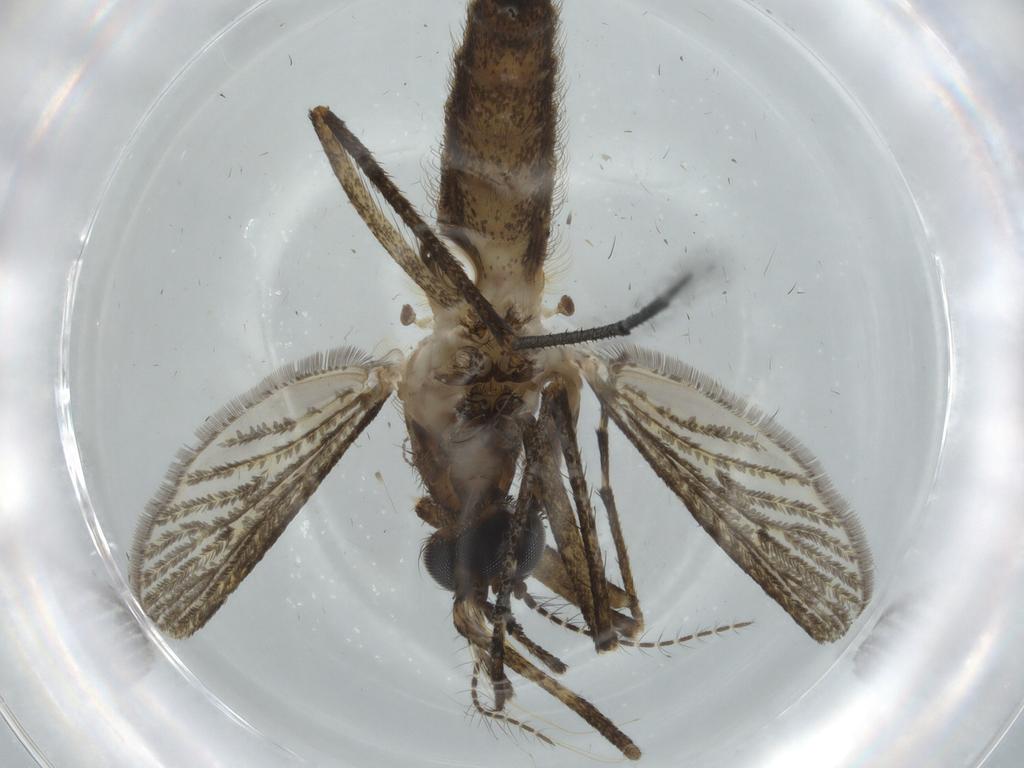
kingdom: Animalia
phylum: Arthropoda
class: Insecta
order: Diptera
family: Culicidae
